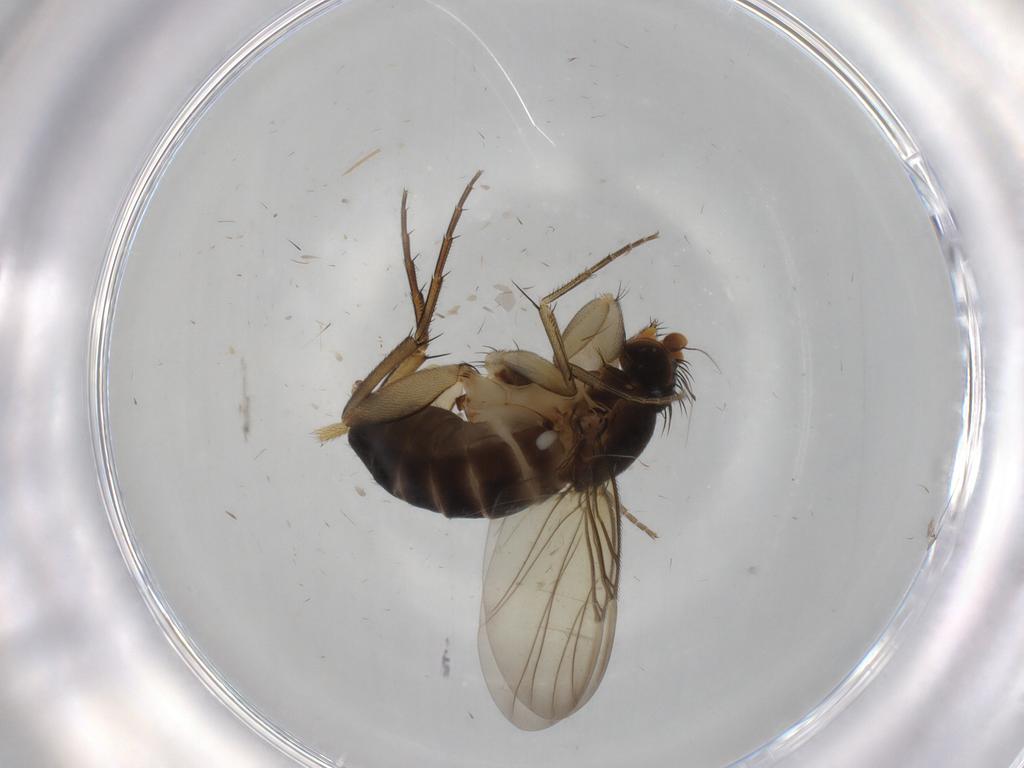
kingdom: Animalia
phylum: Arthropoda
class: Insecta
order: Diptera
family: Phoridae
